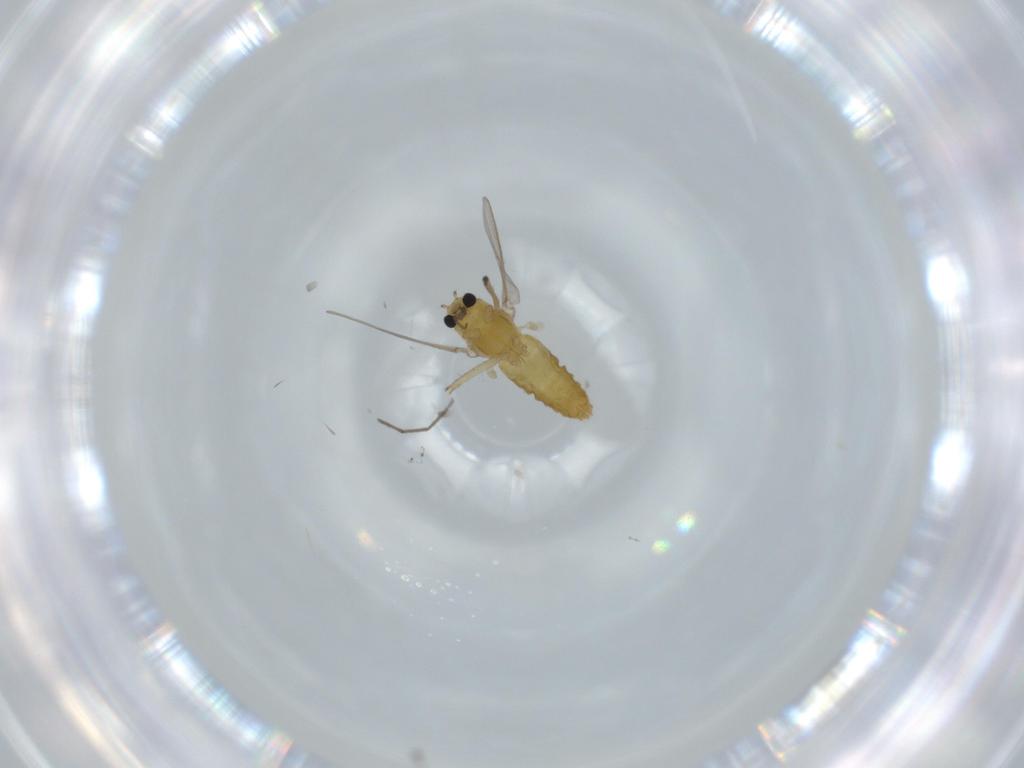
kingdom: Animalia
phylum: Arthropoda
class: Insecta
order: Diptera
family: Chironomidae
